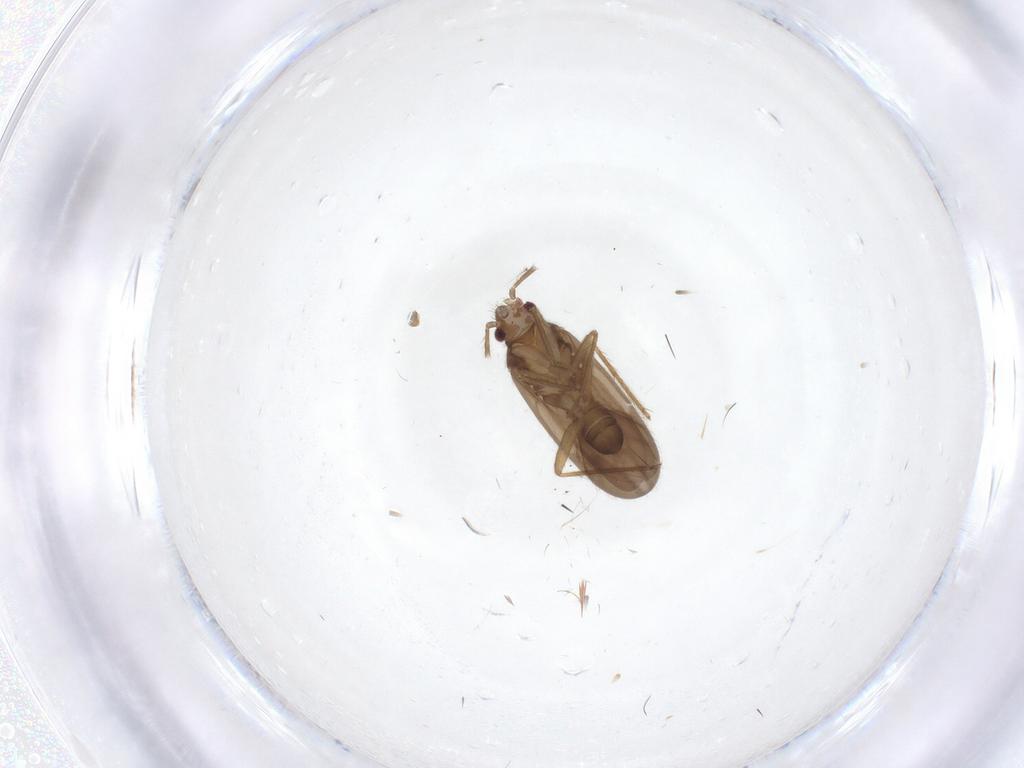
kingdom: Animalia
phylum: Arthropoda
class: Insecta
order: Hemiptera
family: Ceratocombidae
